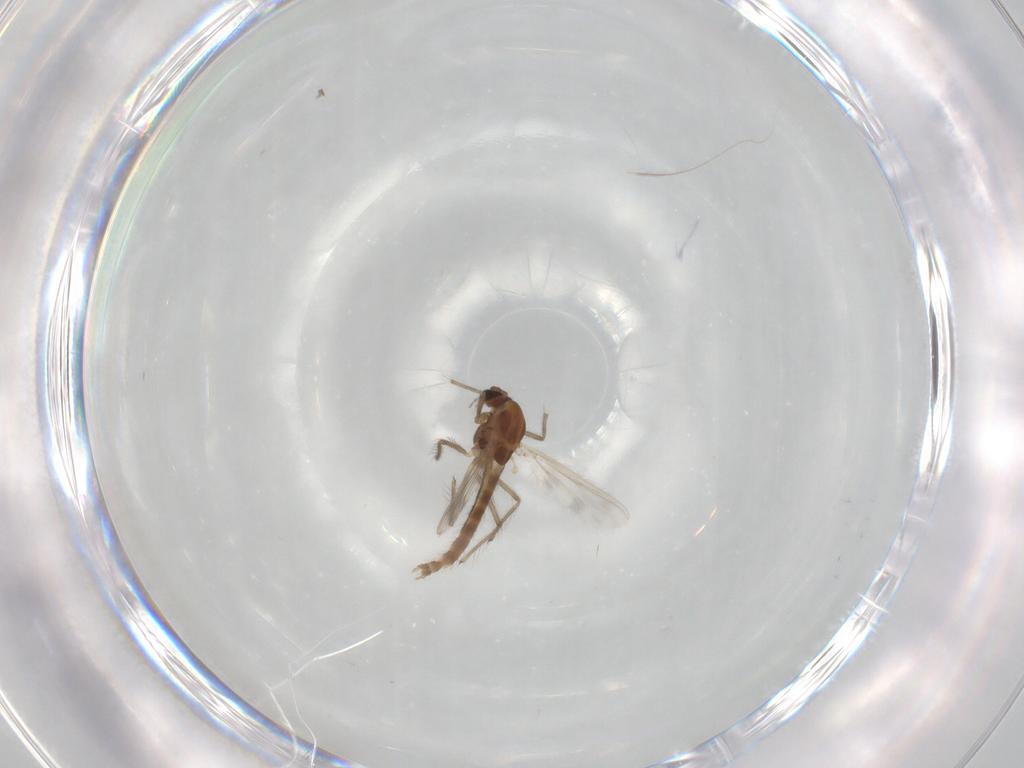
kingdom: Animalia
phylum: Arthropoda
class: Insecta
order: Diptera
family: Chironomidae
